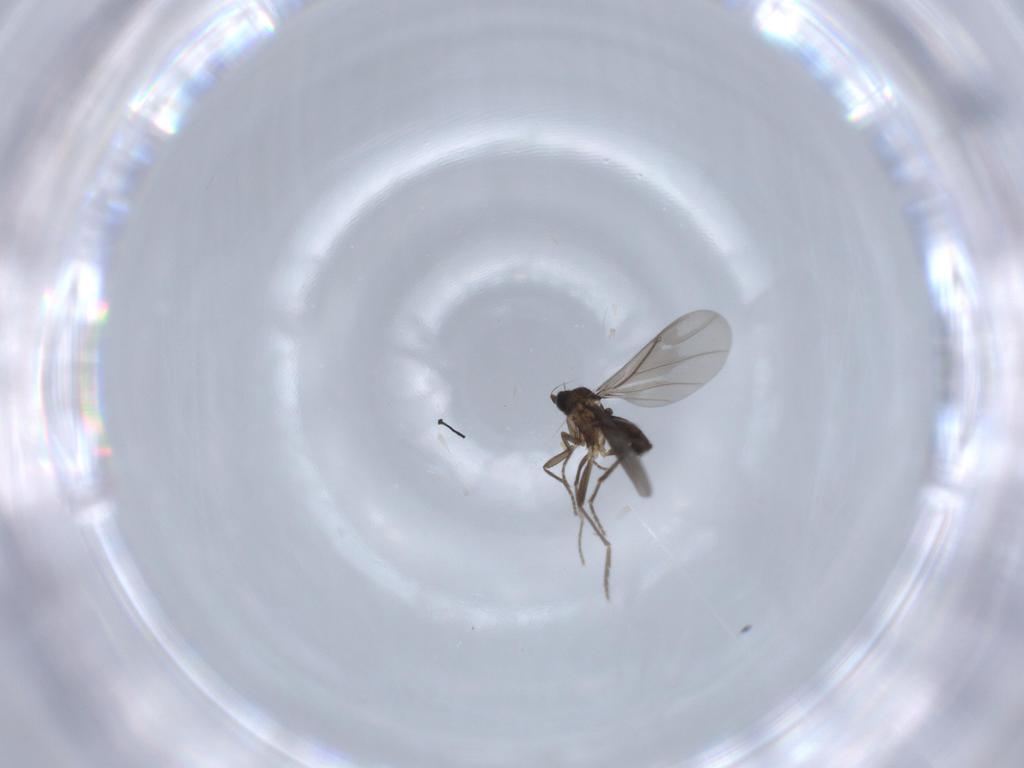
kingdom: Animalia
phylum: Arthropoda
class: Insecta
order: Diptera
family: Phoridae
